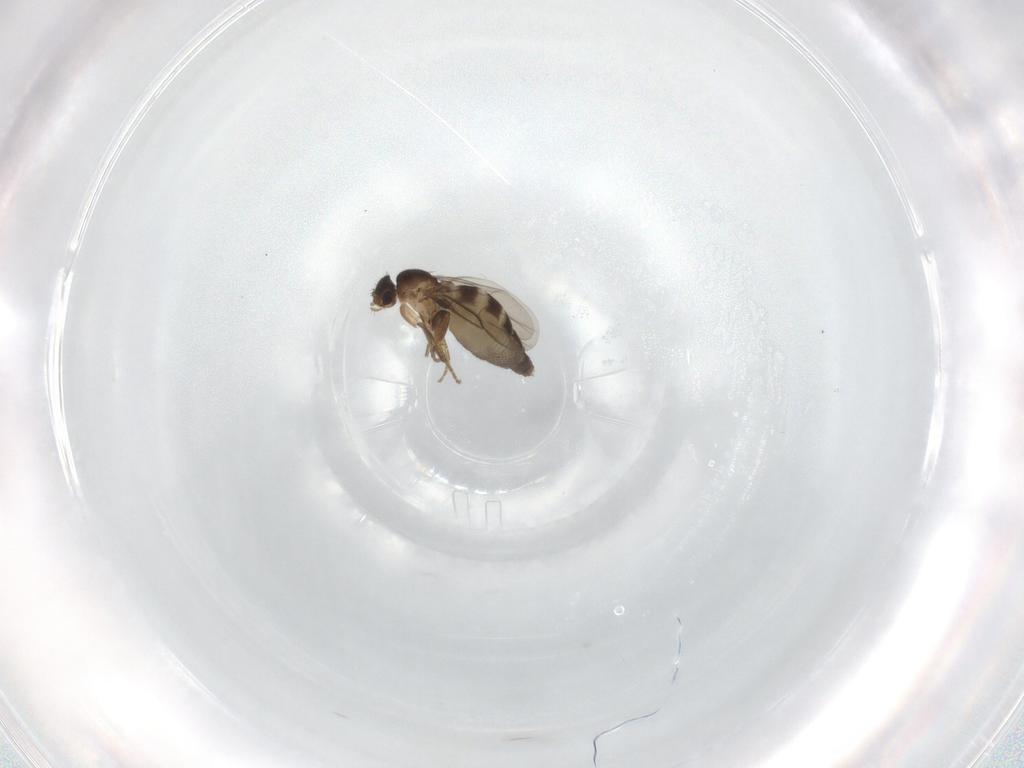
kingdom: Animalia
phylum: Arthropoda
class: Insecta
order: Diptera
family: Phoridae
